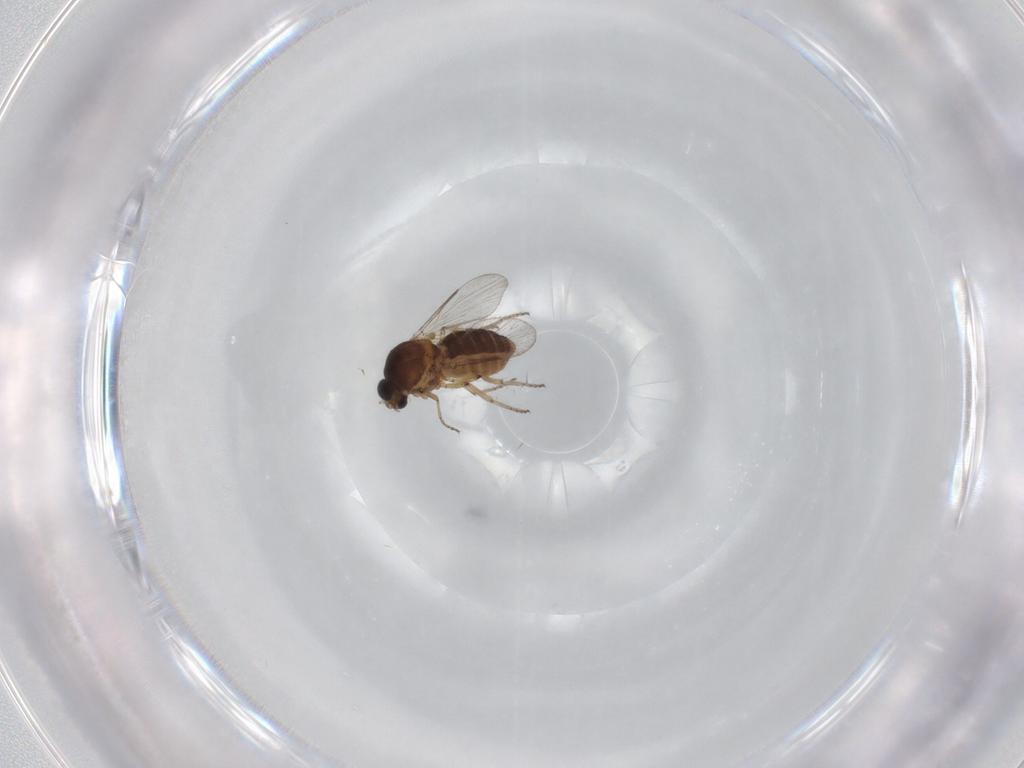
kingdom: Animalia
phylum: Arthropoda
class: Insecta
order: Diptera
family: Ceratopogonidae
